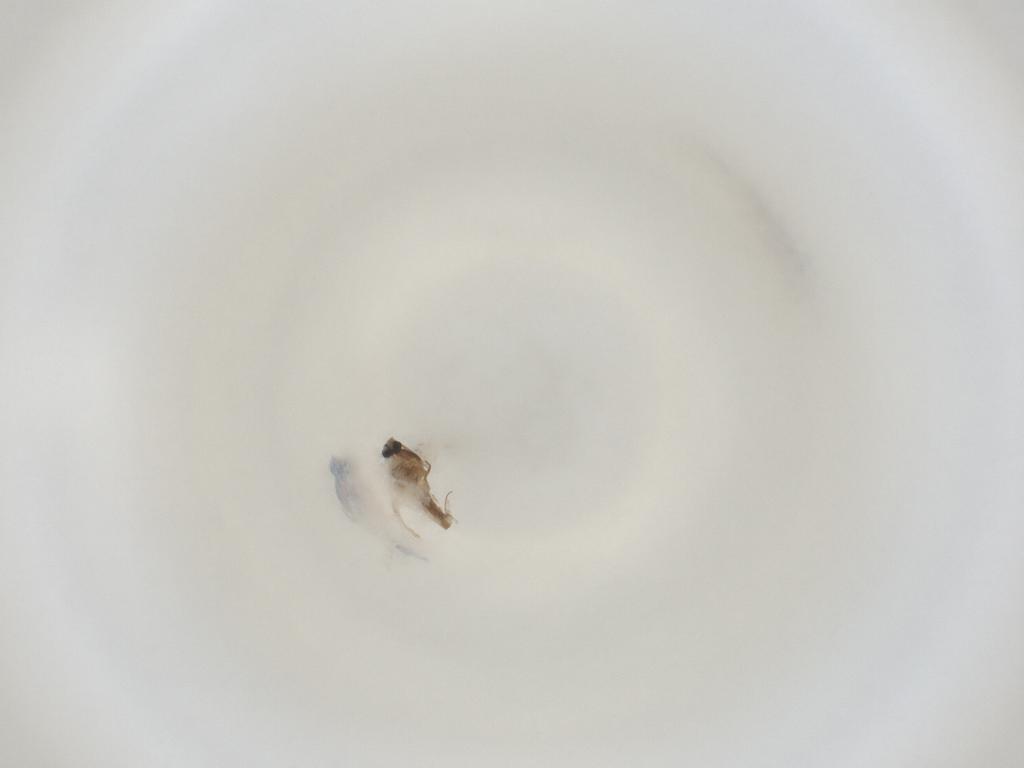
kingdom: Animalia
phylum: Arthropoda
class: Insecta
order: Diptera
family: Cecidomyiidae
